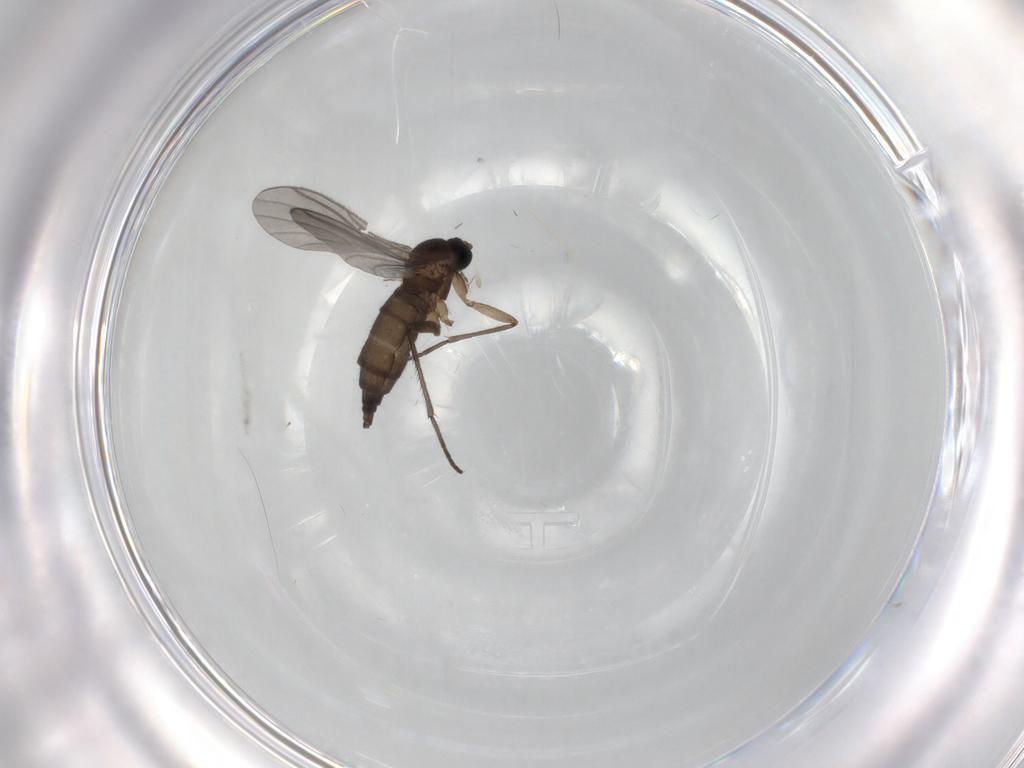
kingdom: Animalia
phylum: Arthropoda
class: Insecta
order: Diptera
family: Sciaridae
